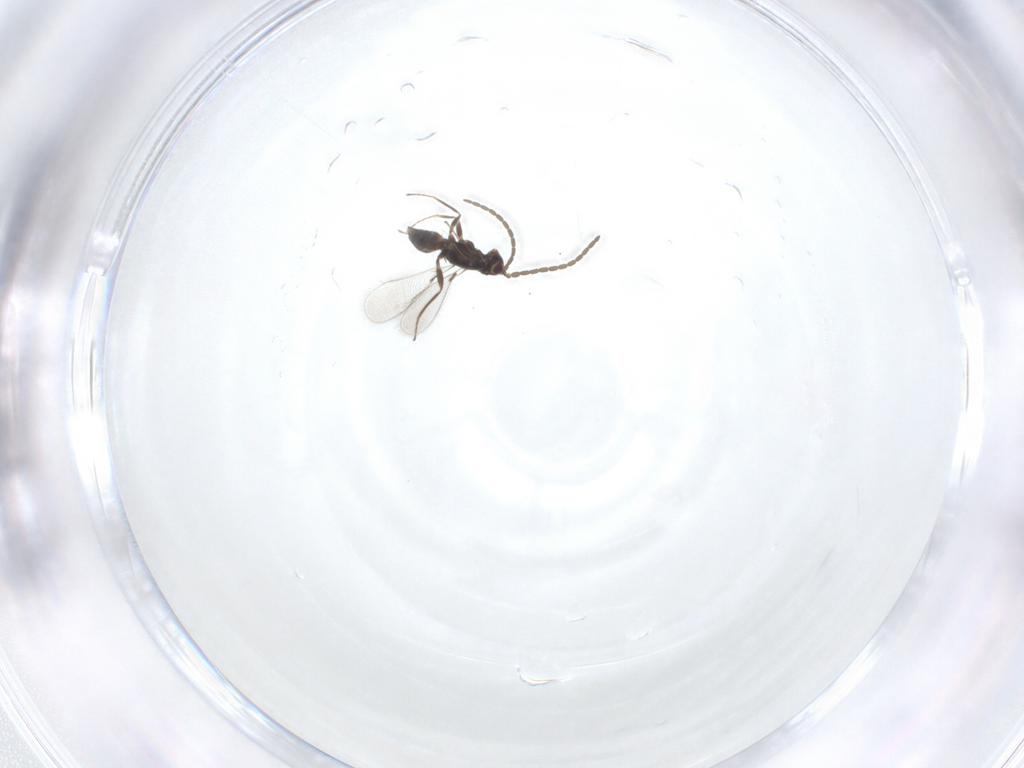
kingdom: Animalia
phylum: Arthropoda
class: Insecta
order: Hymenoptera
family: Mymaridae
